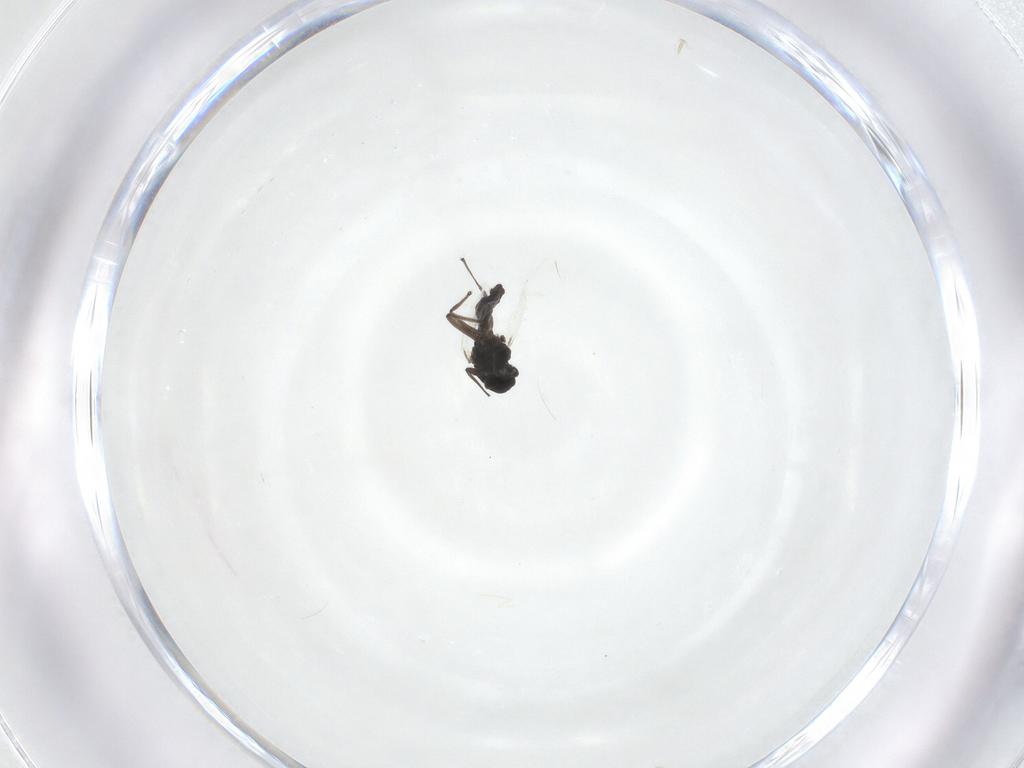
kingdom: Animalia
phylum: Arthropoda
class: Insecta
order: Diptera
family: Chironomidae
